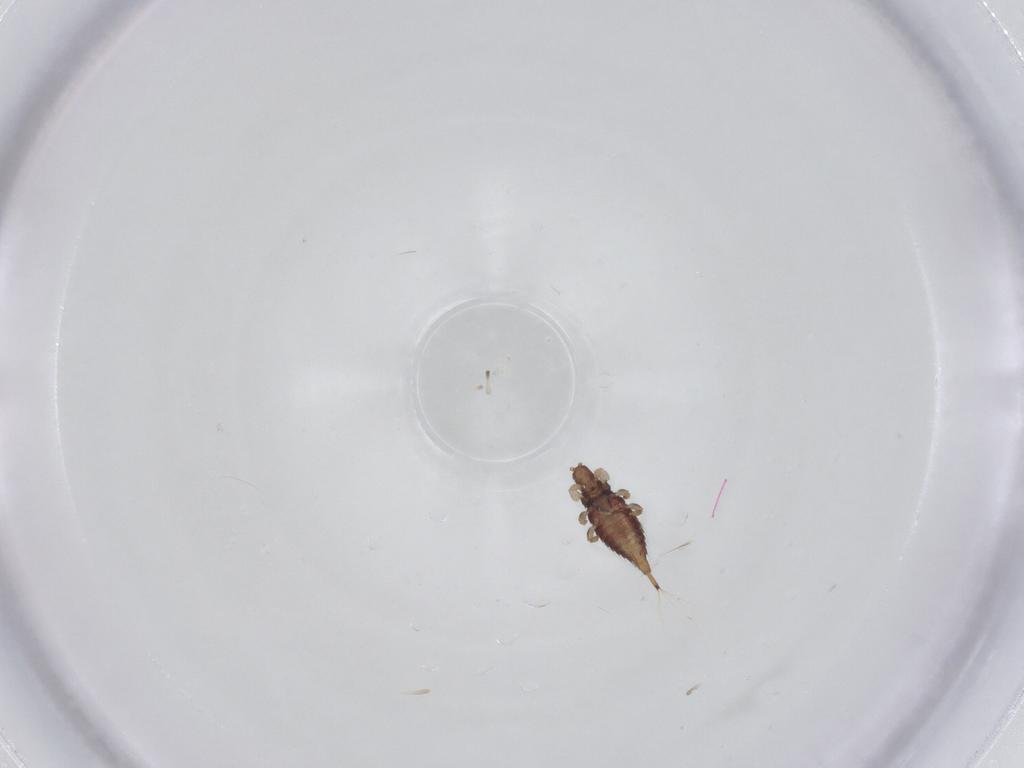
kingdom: Animalia
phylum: Arthropoda
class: Insecta
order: Thysanoptera
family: Phlaeothripidae
